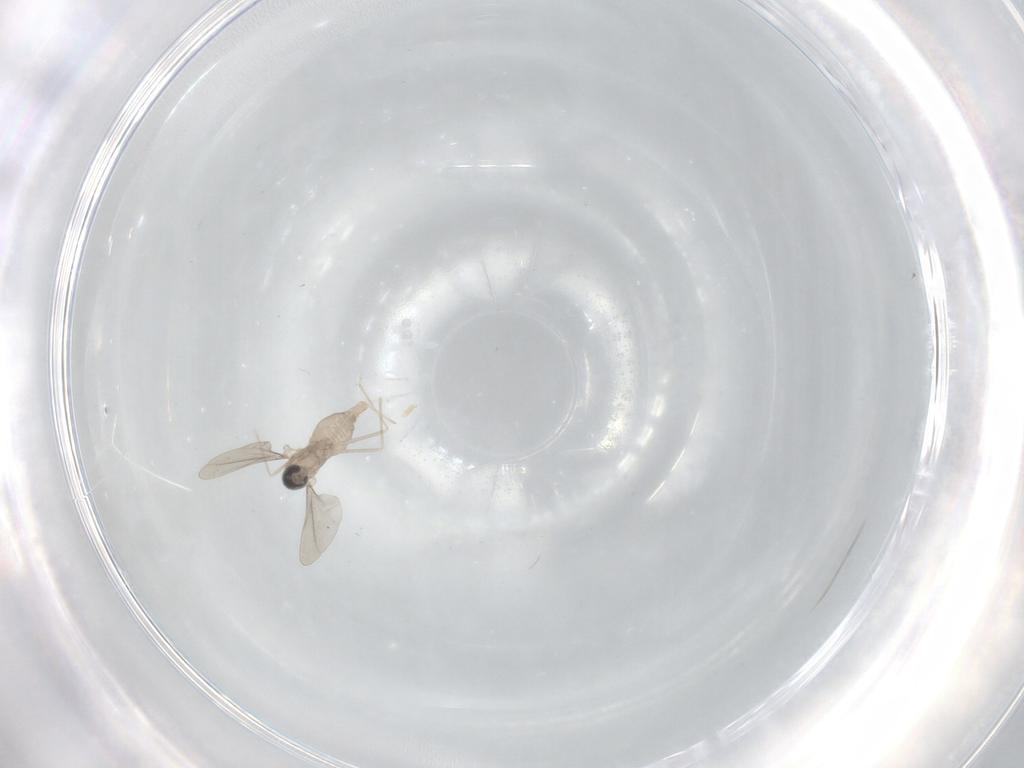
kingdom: Animalia
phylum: Arthropoda
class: Insecta
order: Diptera
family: Cecidomyiidae
